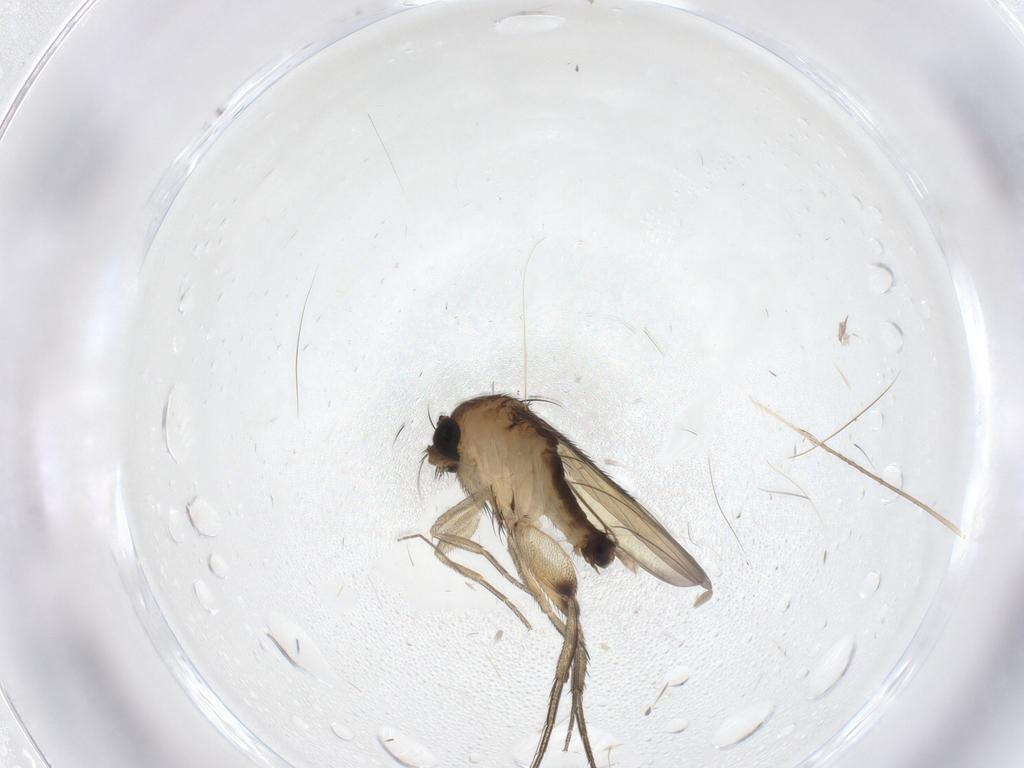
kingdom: Animalia
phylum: Arthropoda
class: Insecta
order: Diptera
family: Phoridae
